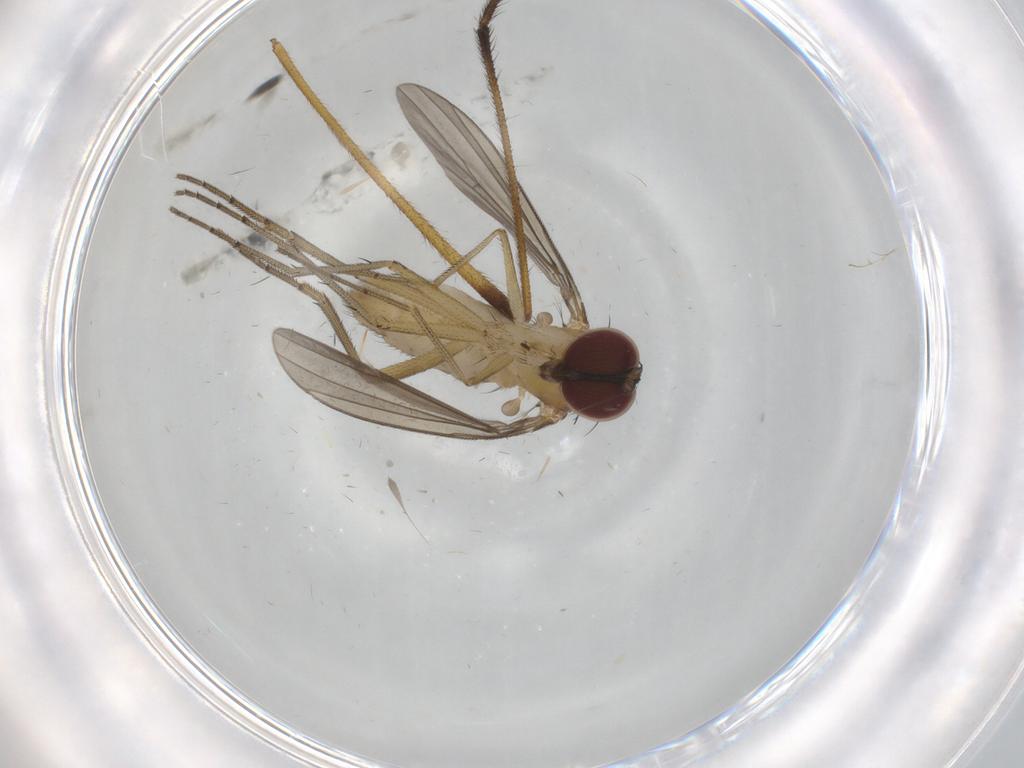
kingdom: Animalia
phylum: Arthropoda
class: Insecta
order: Diptera
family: Dolichopodidae
